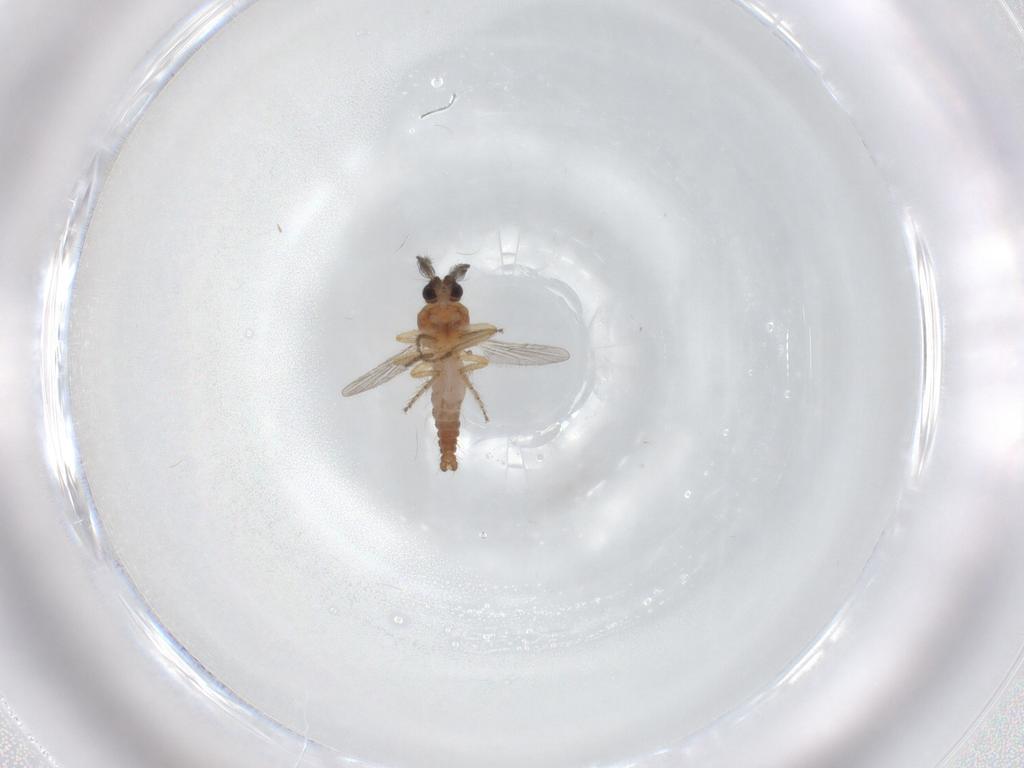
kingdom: Animalia
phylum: Arthropoda
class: Insecta
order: Diptera
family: Ceratopogonidae
